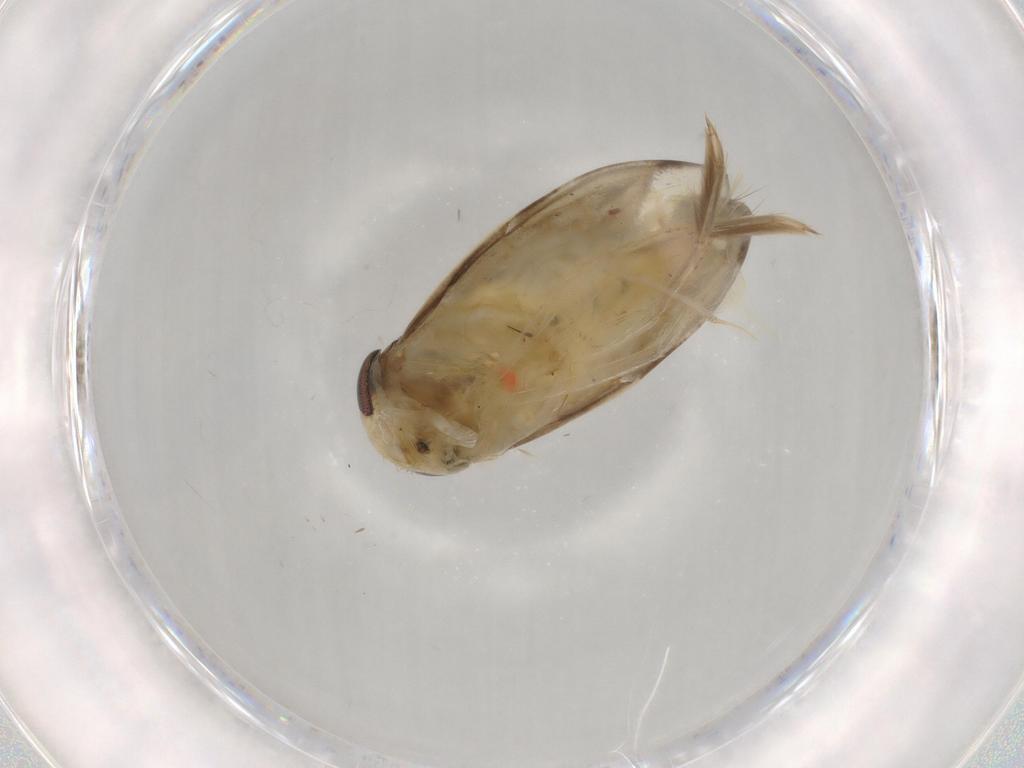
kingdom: Animalia
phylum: Arthropoda
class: Insecta
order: Hemiptera
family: Cicadellidae
